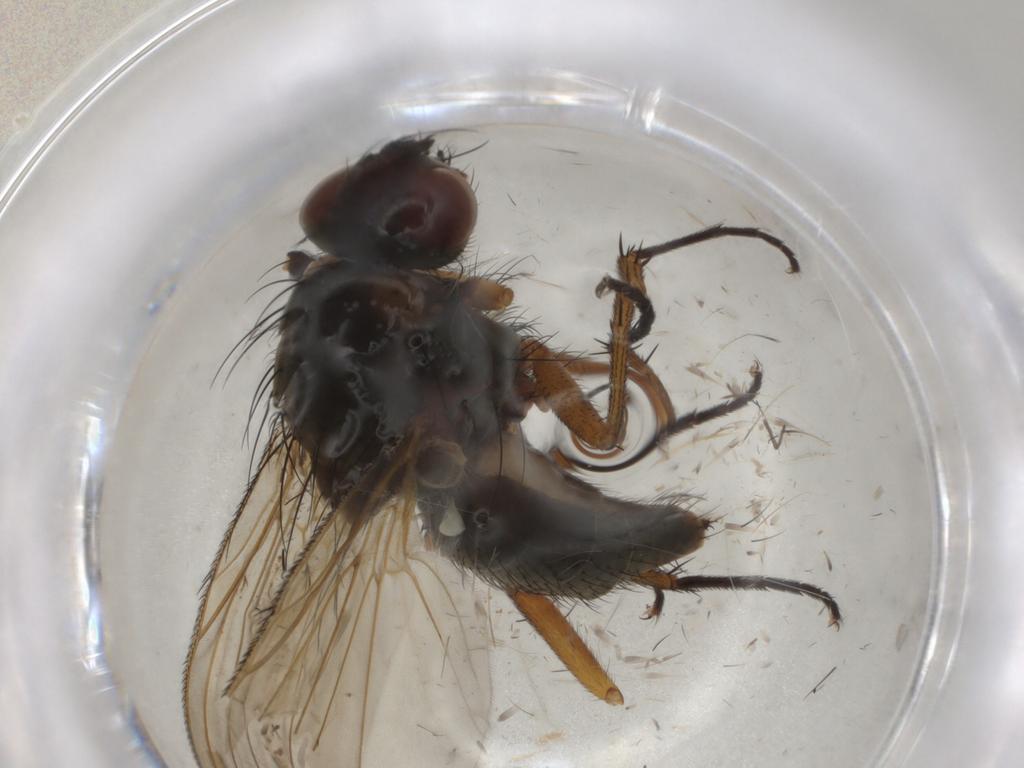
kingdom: Animalia
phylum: Arthropoda
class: Insecta
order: Diptera
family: Anthomyiidae
